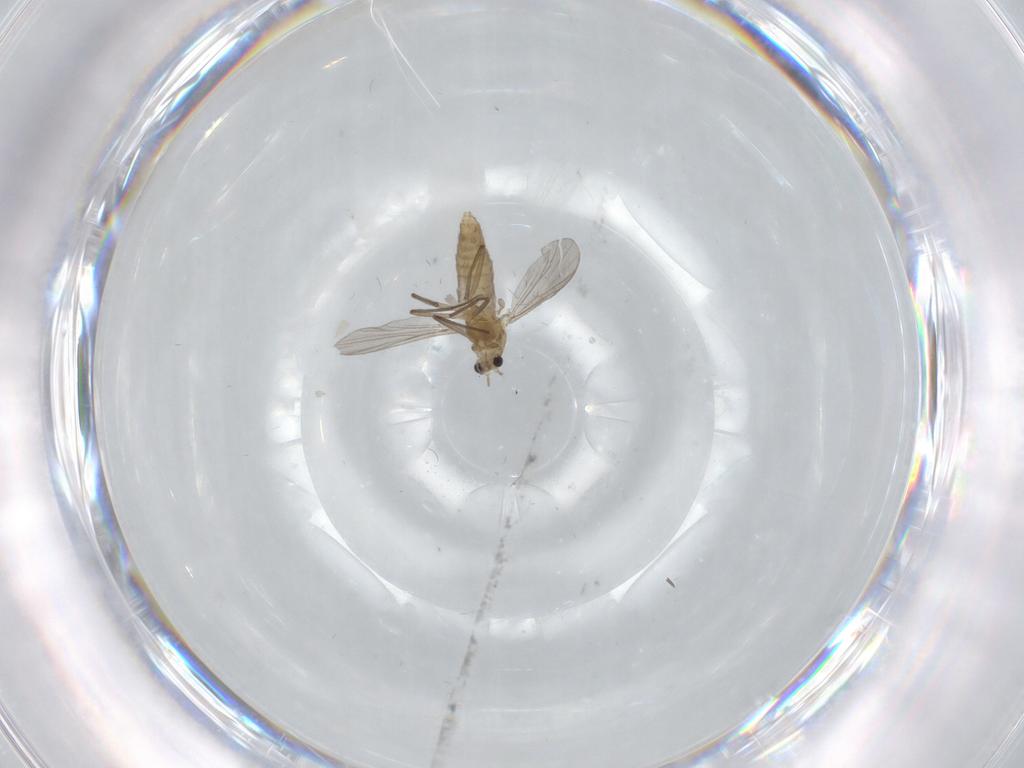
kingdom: Animalia
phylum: Arthropoda
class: Insecta
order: Diptera
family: Chironomidae
